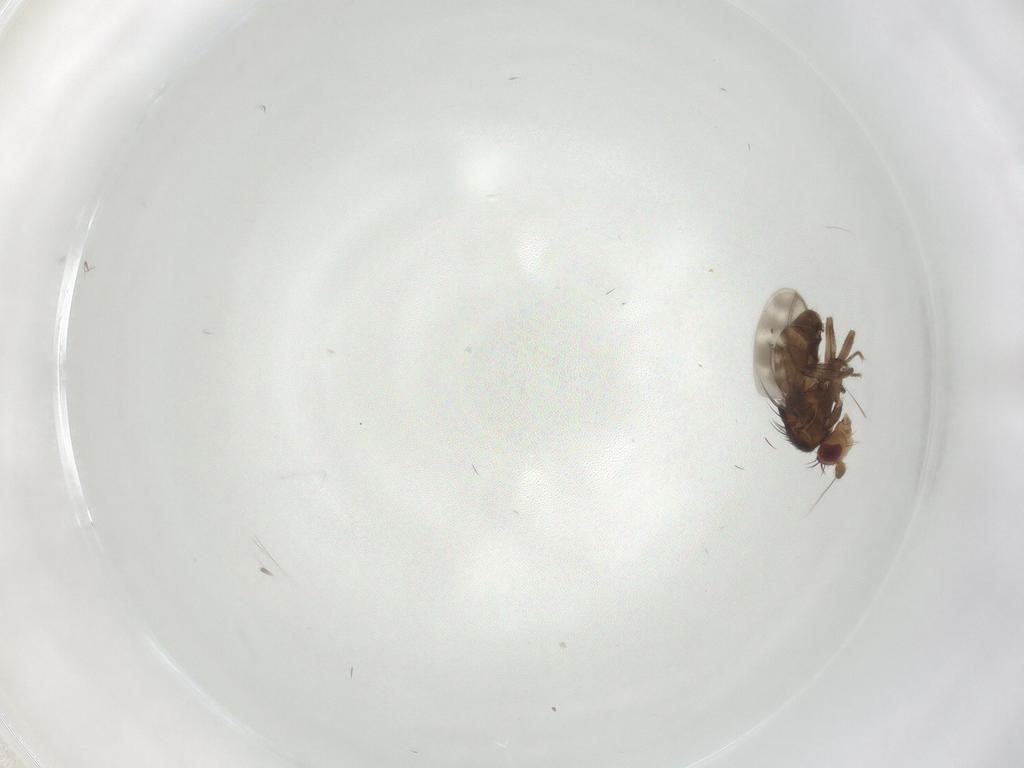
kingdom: Animalia
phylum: Arthropoda
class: Insecta
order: Diptera
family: Sphaeroceridae
